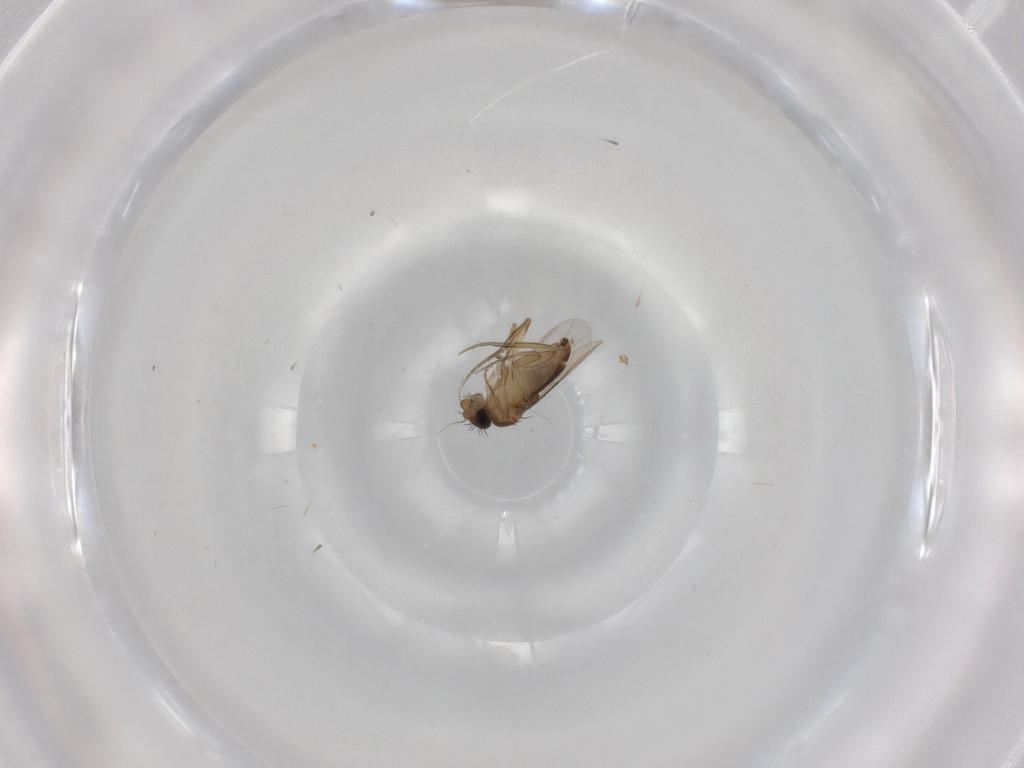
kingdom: Animalia
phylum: Arthropoda
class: Insecta
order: Diptera
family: Phoridae
